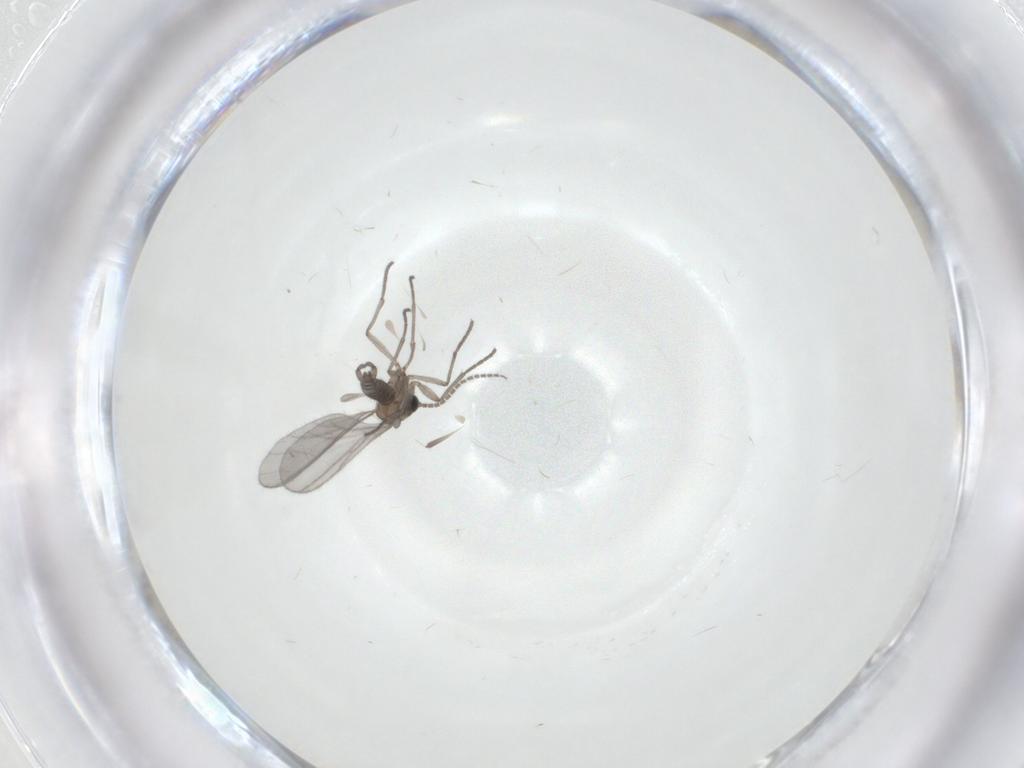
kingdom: Animalia
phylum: Arthropoda
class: Insecta
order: Diptera
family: Sciaridae
